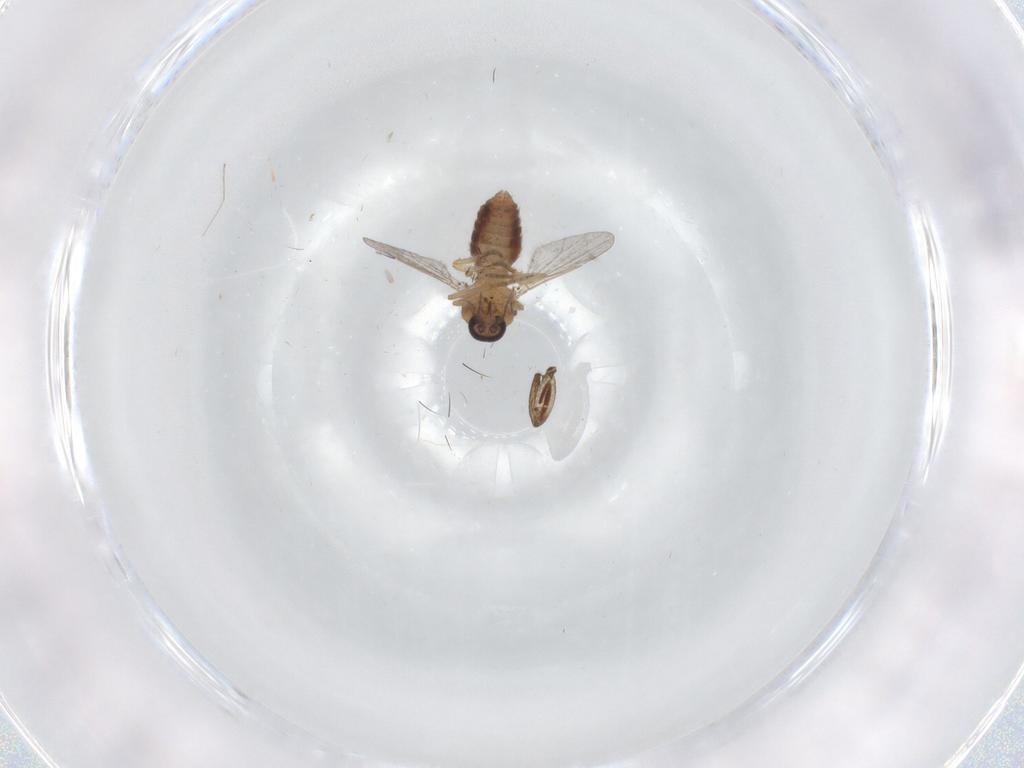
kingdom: Animalia
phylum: Arthropoda
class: Insecta
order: Diptera
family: Ceratopogonidae
